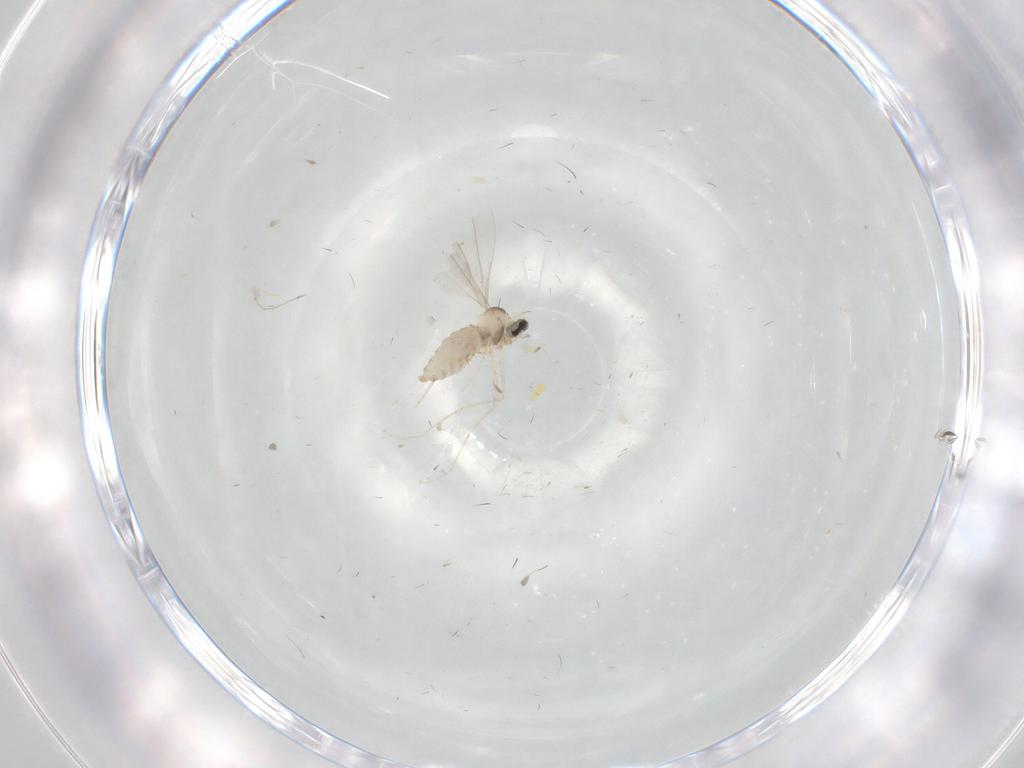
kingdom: Animalia
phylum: Arthropoda
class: Insecta
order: Diptera
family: Cecidomyiidae
